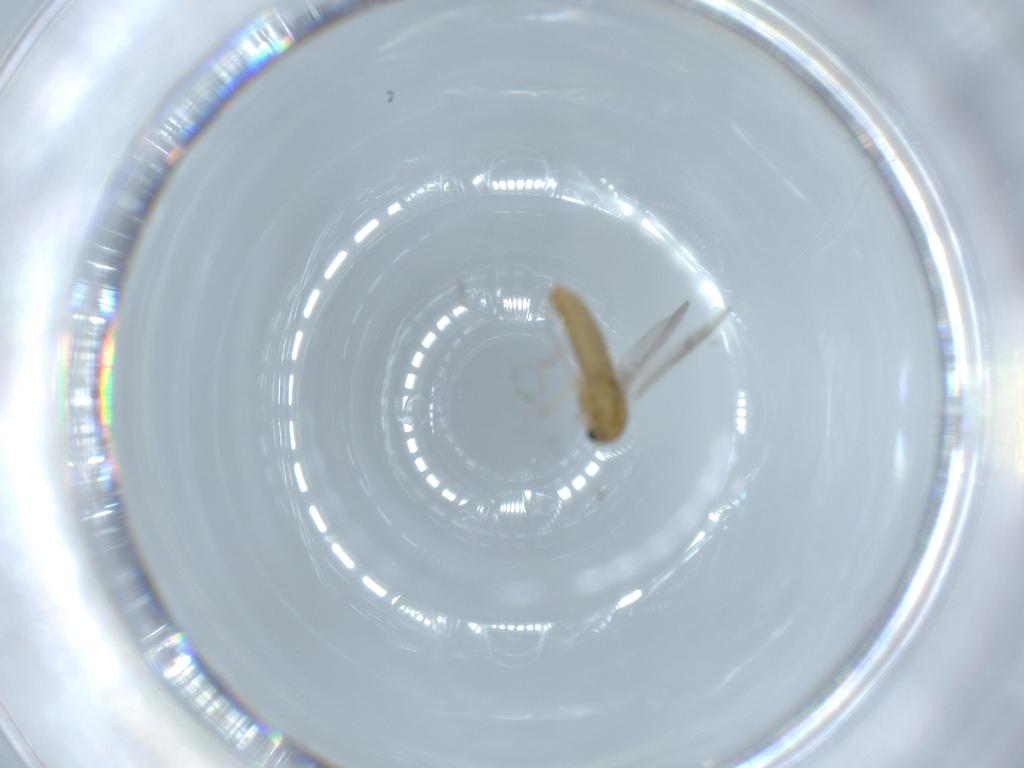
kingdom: Animalia
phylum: Arthropoda
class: Insecta
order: Diptera
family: Chironomidae
